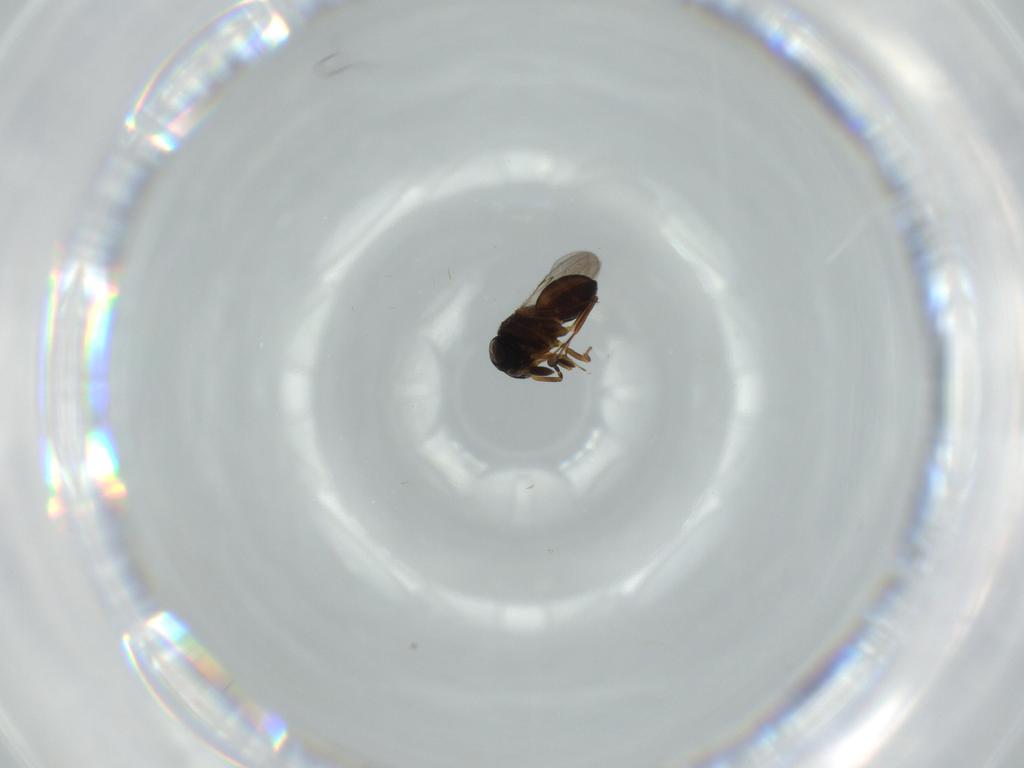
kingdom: Animalia
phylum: Arthropoda
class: Insecta
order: Coleoptera
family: Curculionidae
